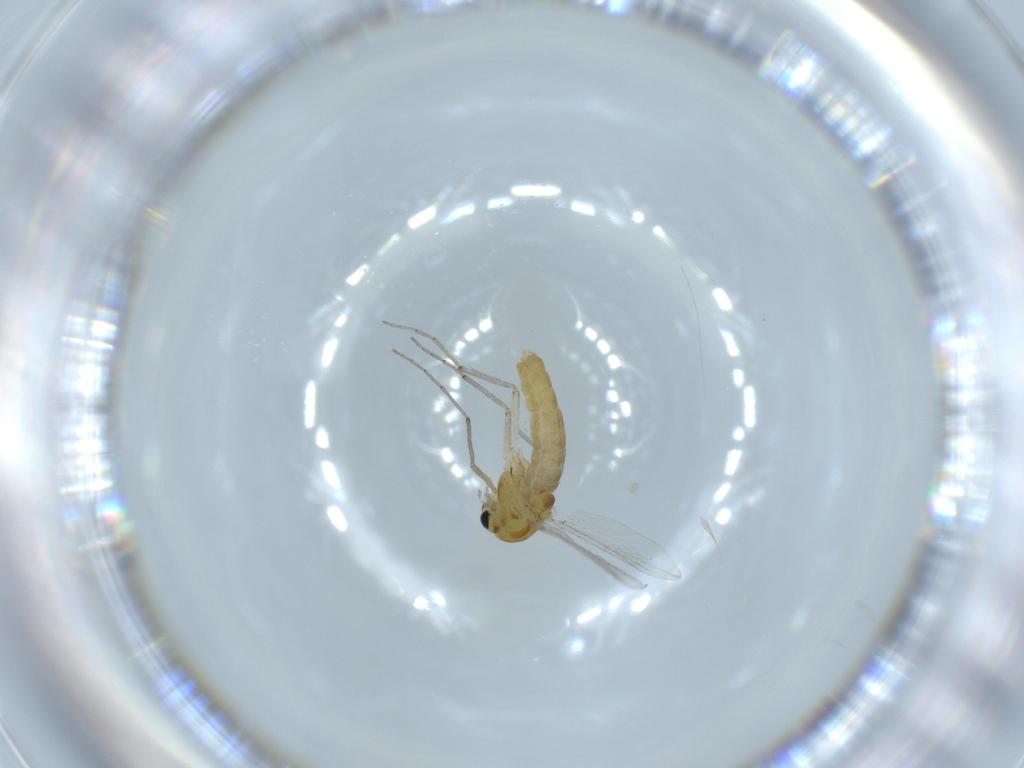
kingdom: Animalia
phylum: Arthropoda
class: Insecta
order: Diptera
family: Chironomidae
